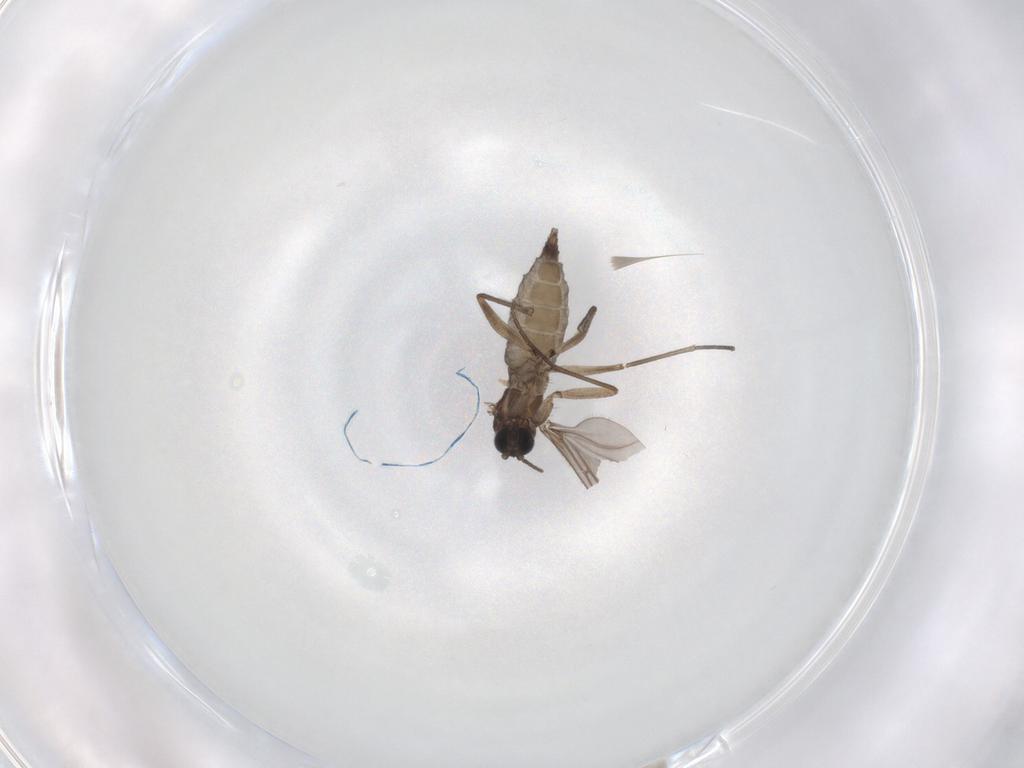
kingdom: Animalia
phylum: Arthropoda
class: Insecta
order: Diptera
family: Sciaridae
